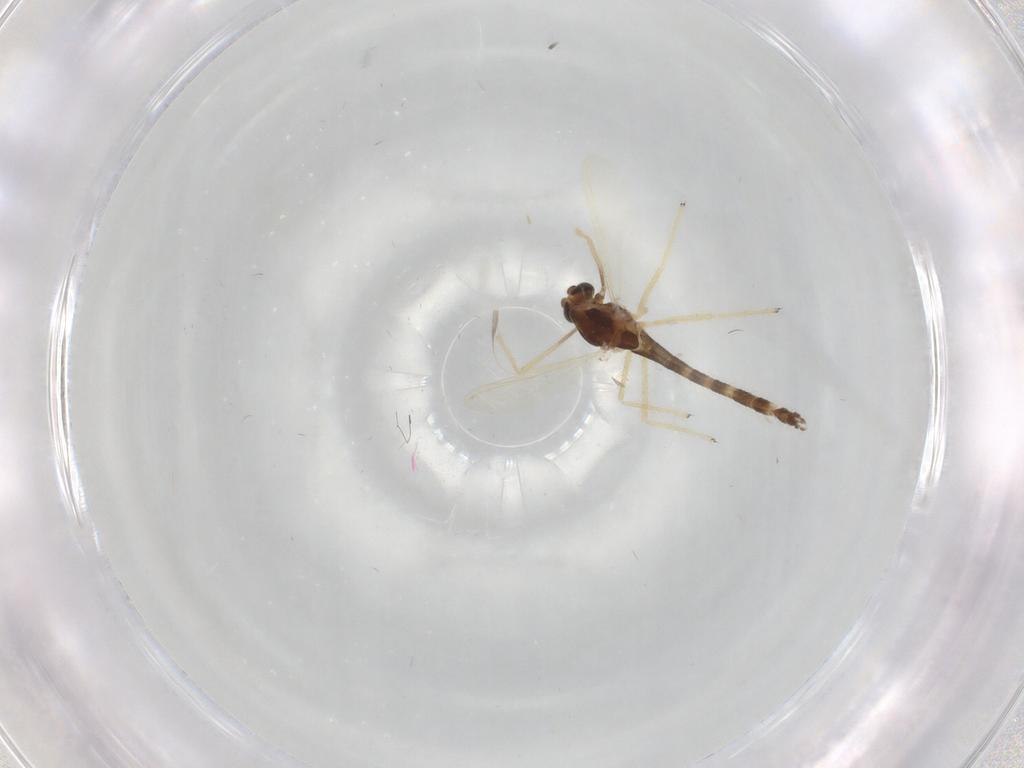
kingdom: Animalia
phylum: Arthropoda
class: Insecta
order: Diptera
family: Chironomidae
